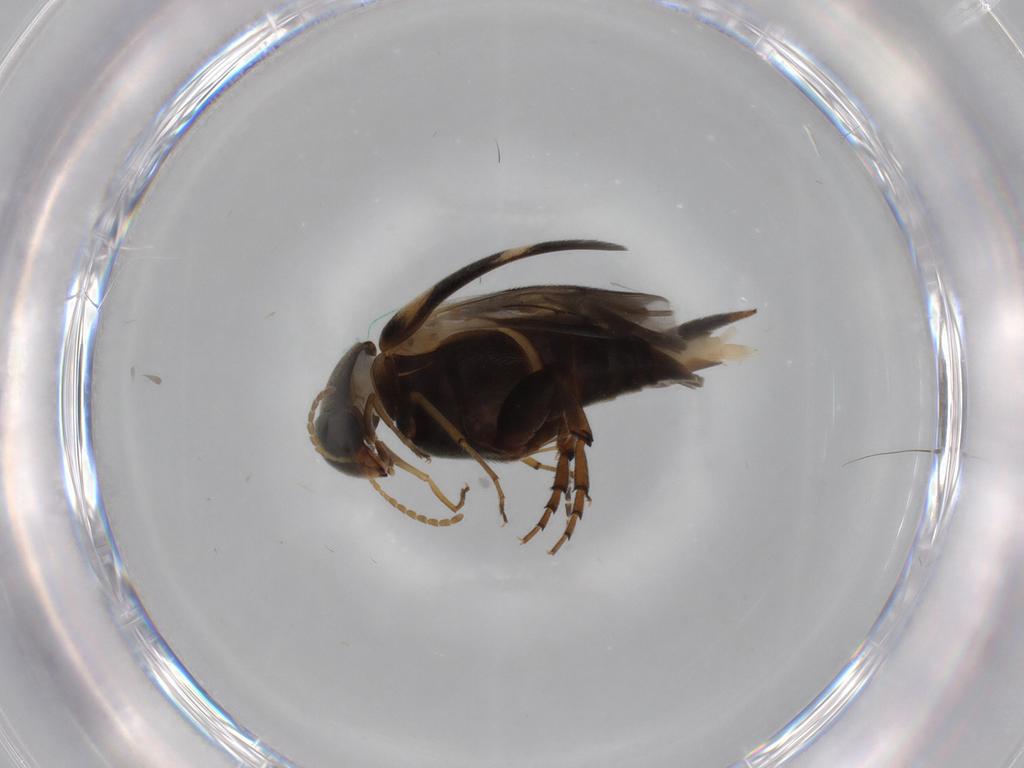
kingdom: Animalia
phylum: Arthropoda
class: Insecta
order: Coleoptera
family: Mordellidae
